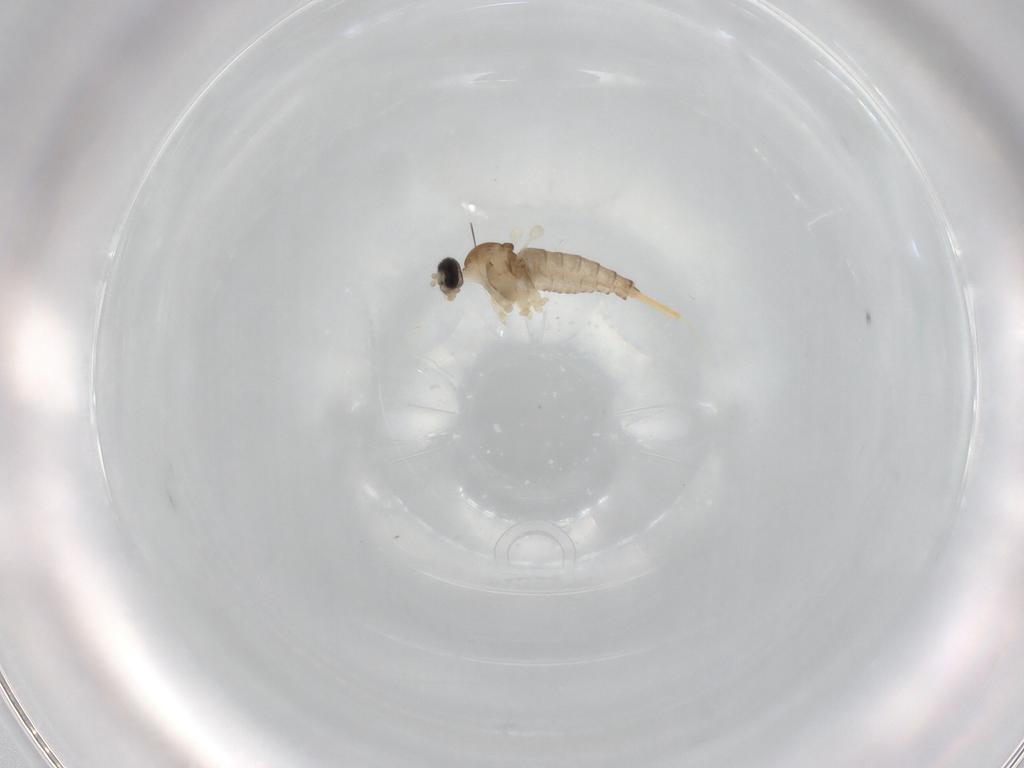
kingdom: Animalia
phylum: Arthropoda
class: Insecta
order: Diptera
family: Cecidomyiidae
